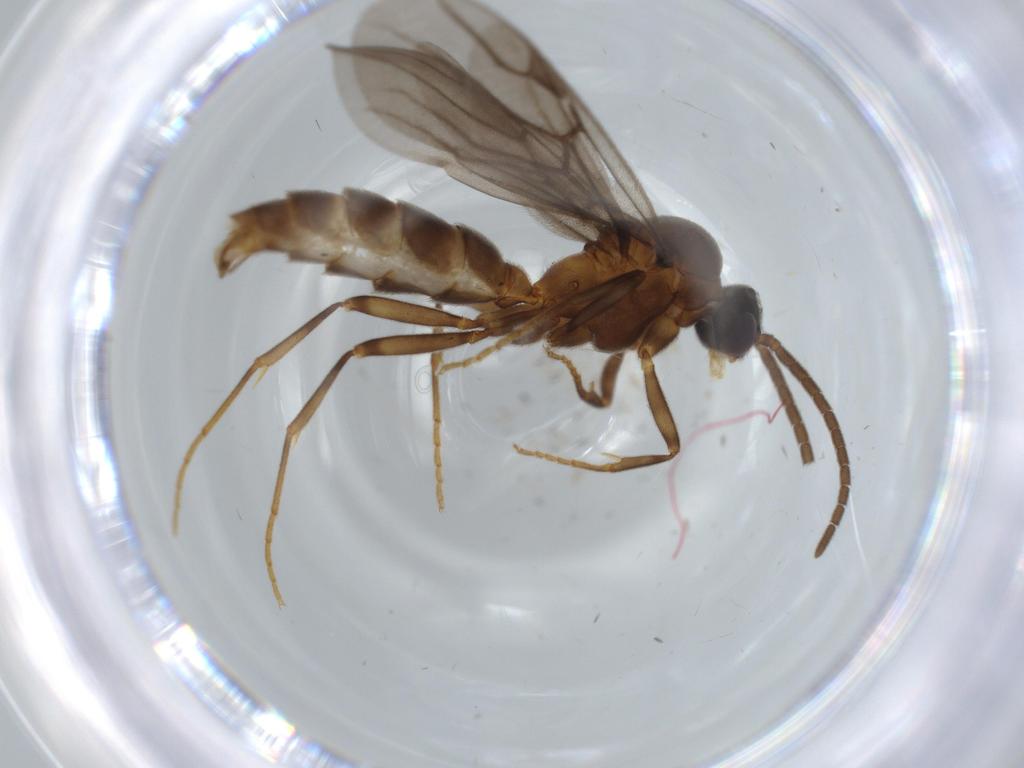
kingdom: Animalia
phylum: Arthropoda
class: Insecta
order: Hymenoptera
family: Formicidae
